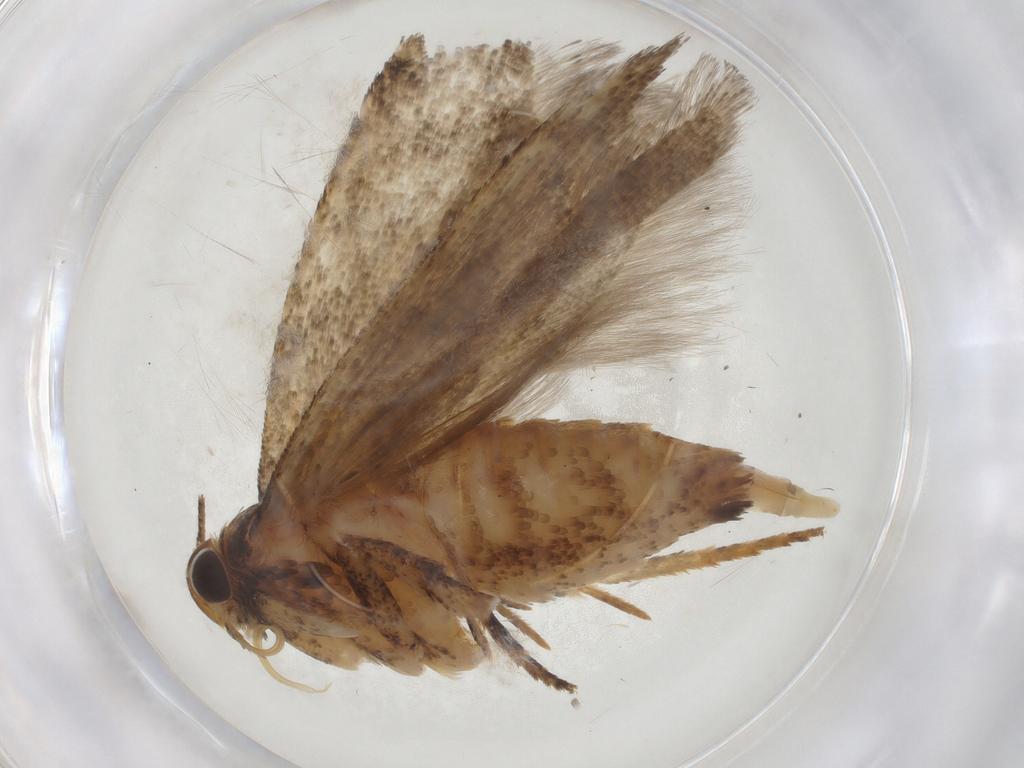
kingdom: Animalia
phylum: Arthropoda
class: Insecta
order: Lepidoptera
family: Gelechiidae
